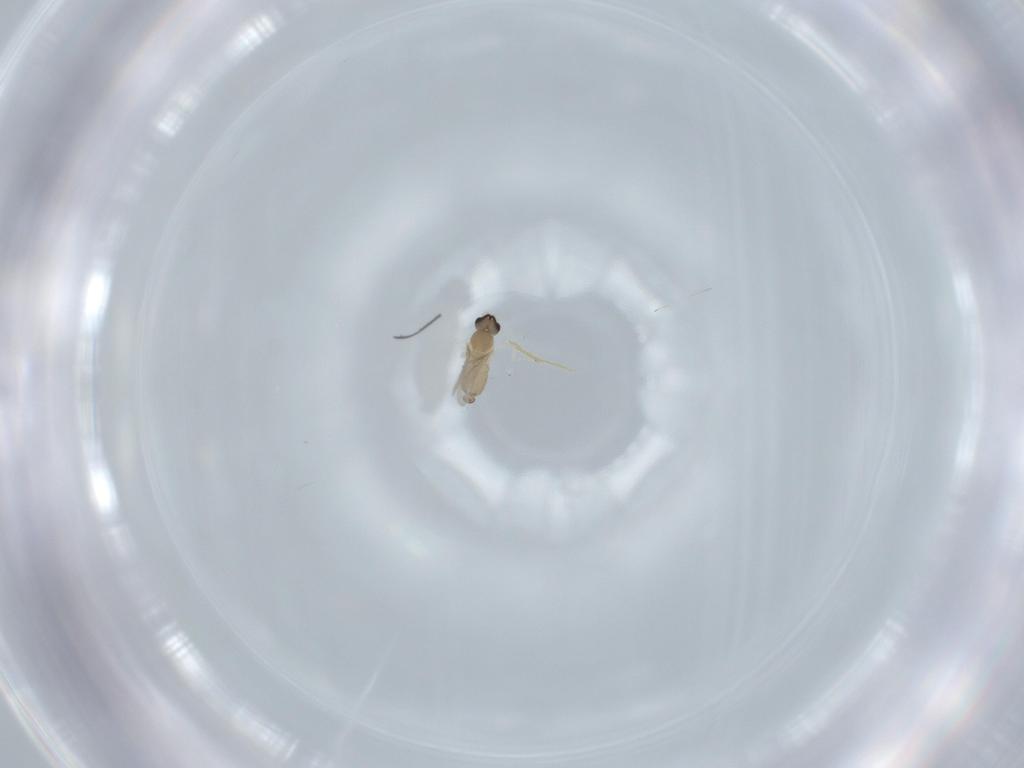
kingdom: Animalia
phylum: Arthropoda
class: Insecta
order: Diptera
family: Cecidomyiidae
